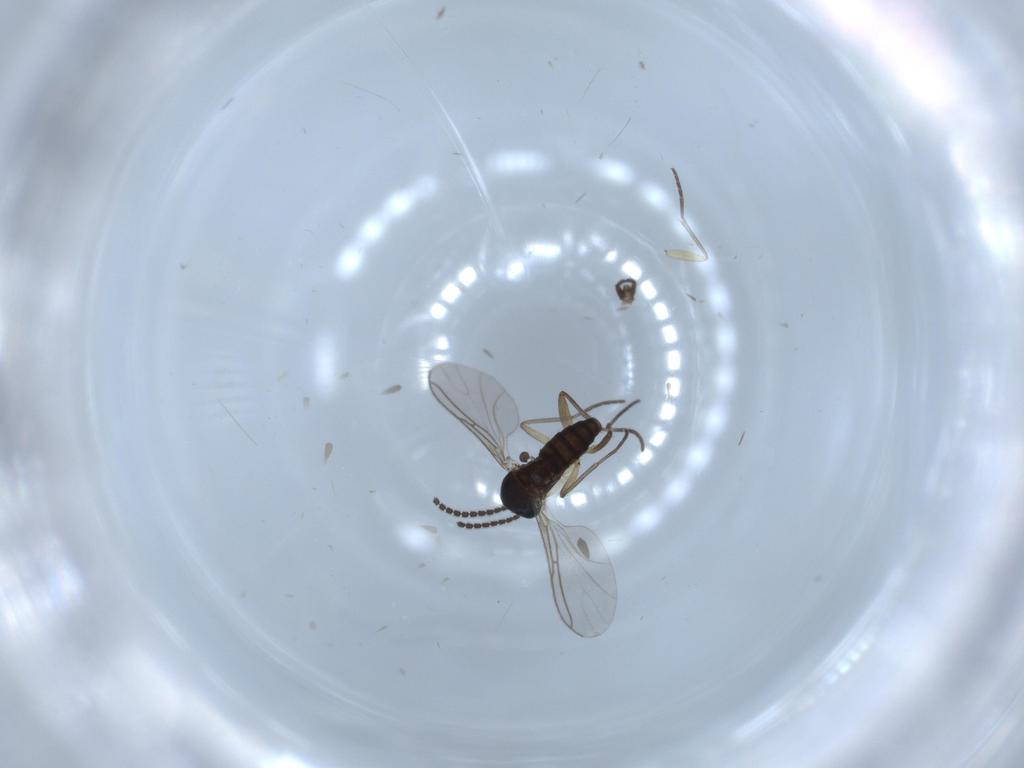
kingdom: Animalia
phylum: Arthropoda
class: Insecta
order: Diptera
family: Sciaridae
